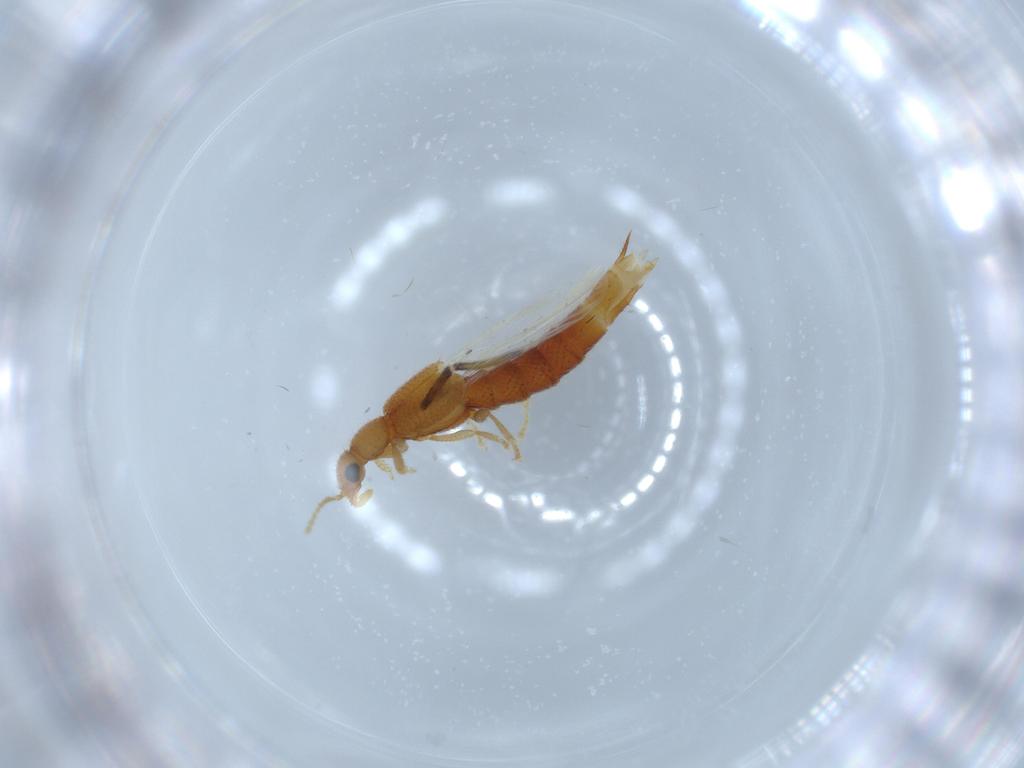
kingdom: Animalia
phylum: Arthropoda
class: Insecta
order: Coleoptera
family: Staphylinidae
